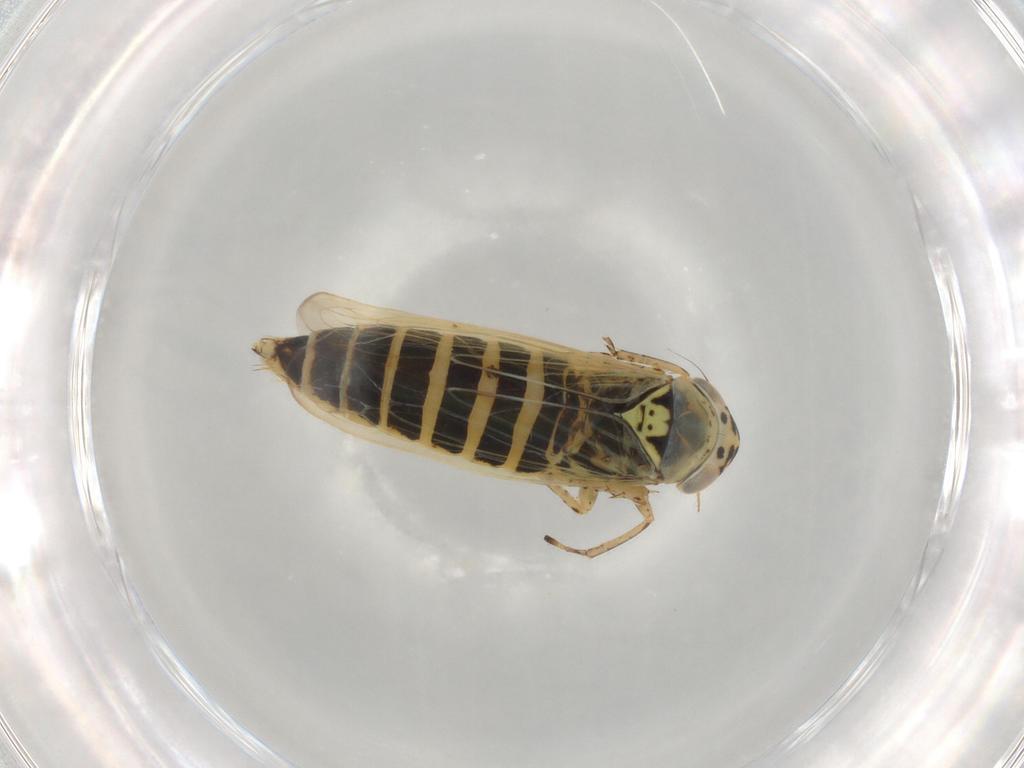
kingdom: Animalia
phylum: Arthropoda
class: Insecta
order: Hemiptera
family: Cicadellidae
